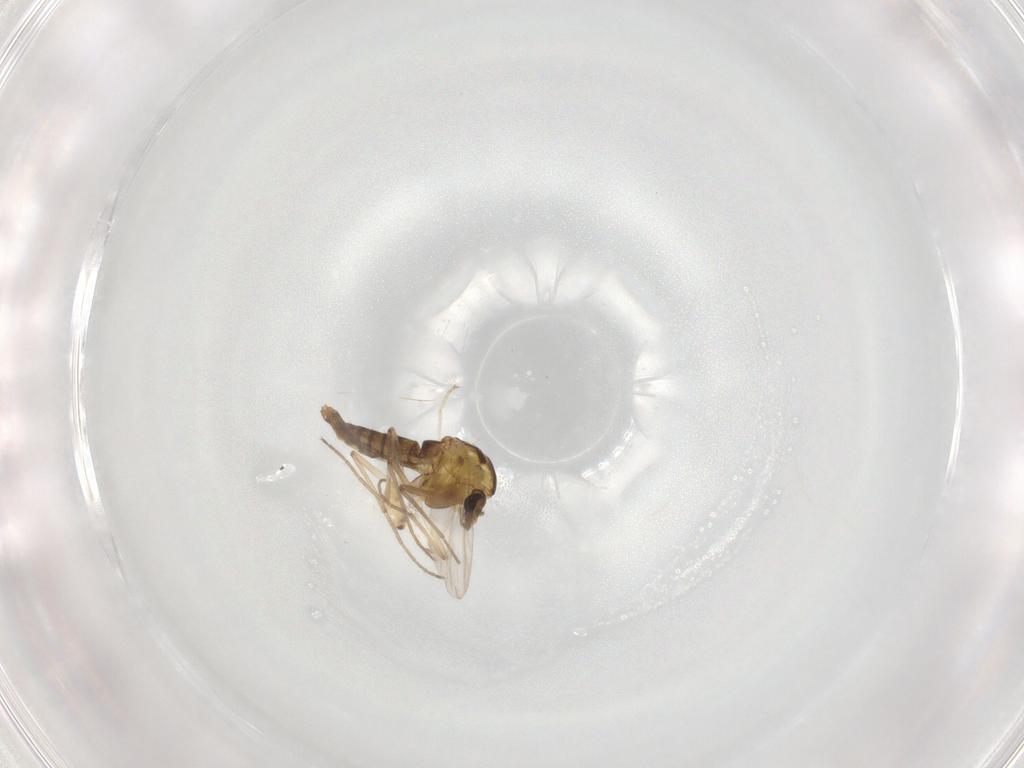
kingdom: Animalia
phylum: Arthropoda
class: Insecta
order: Diptera
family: Chironomidae
